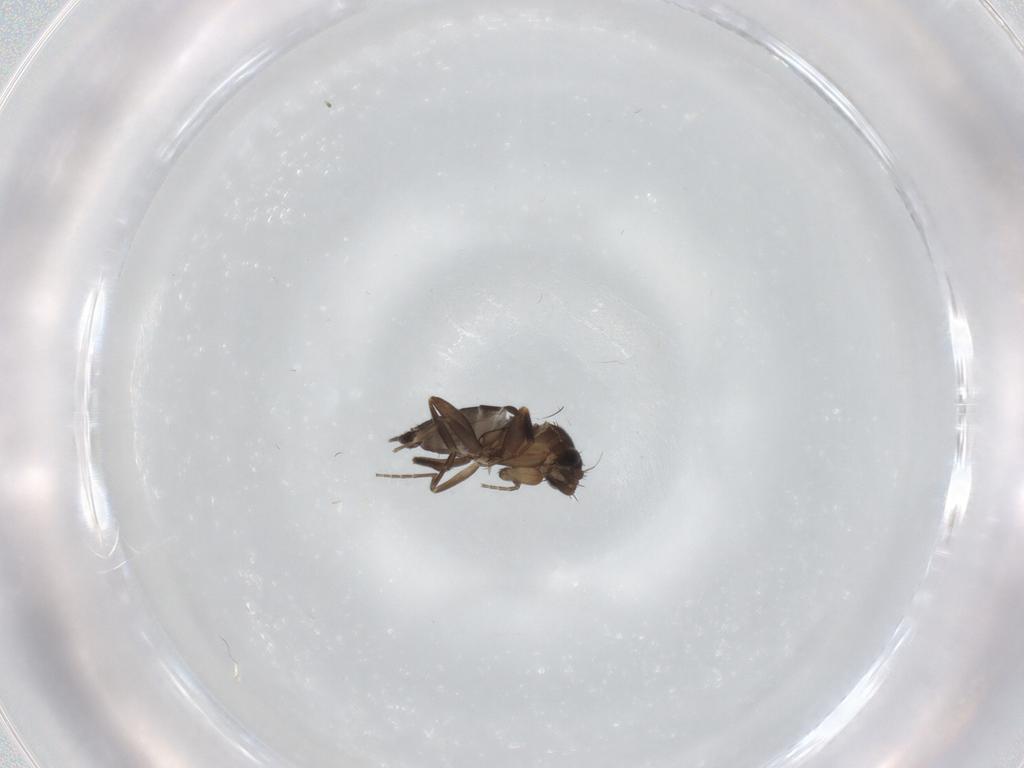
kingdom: Animalia
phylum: Arthropoda
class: Insecta
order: Diptera
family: Phoridae
